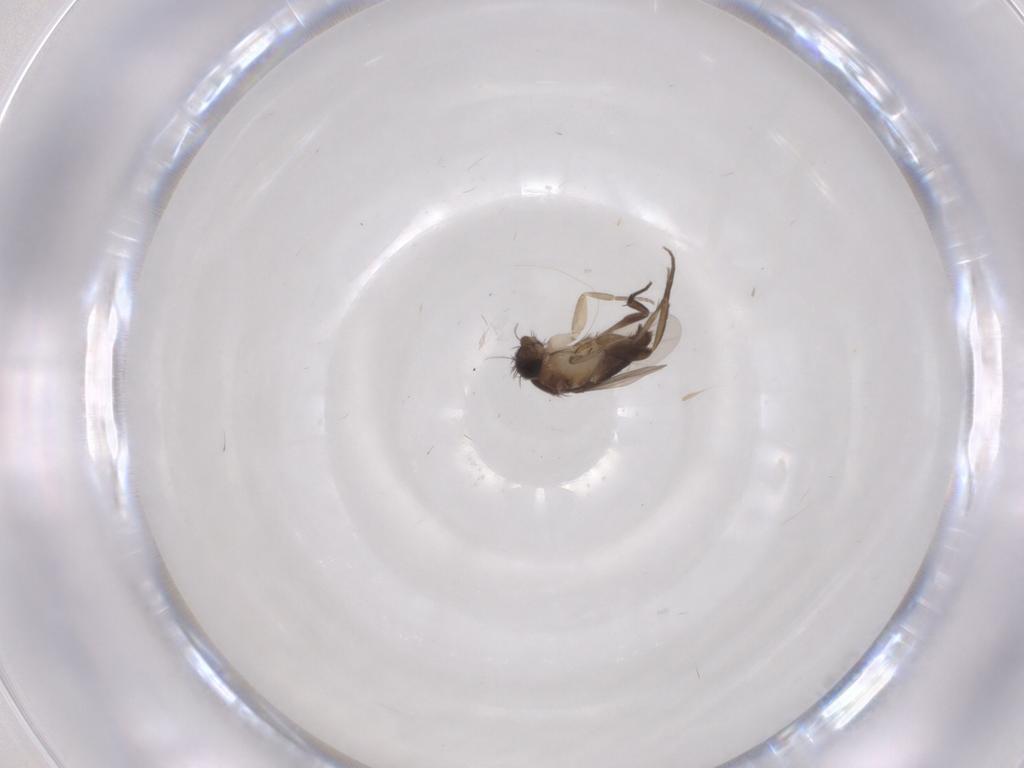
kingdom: Animalia
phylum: Arthropoda
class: Insecta
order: Diptera
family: Phoridae
